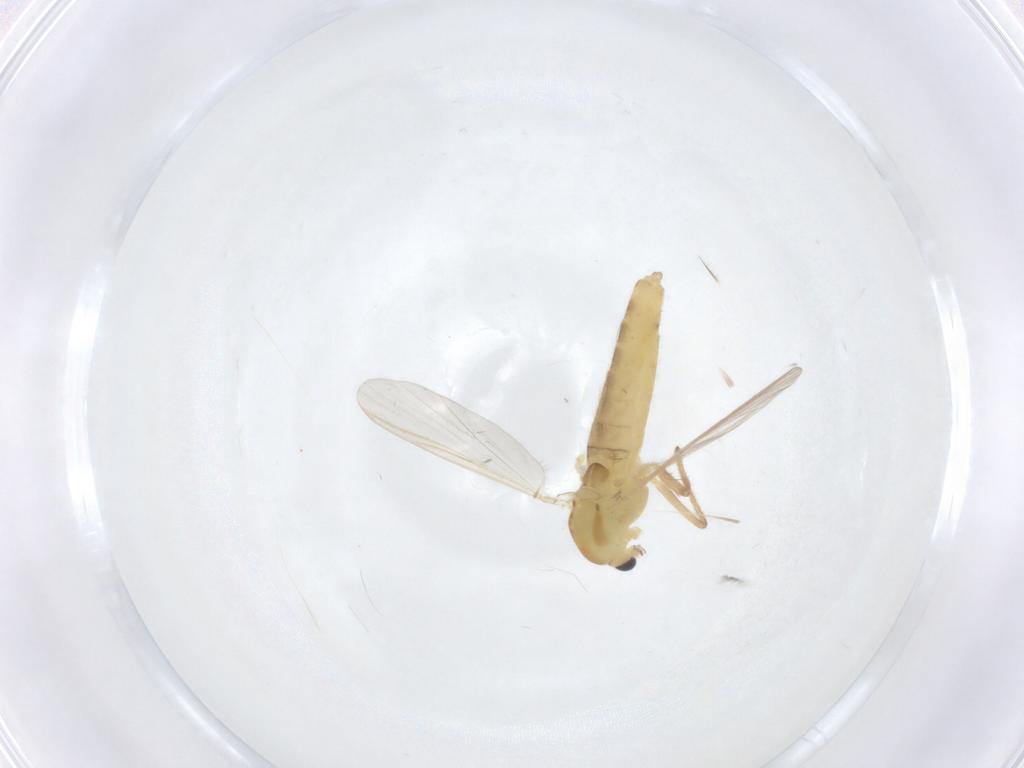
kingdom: Animalia
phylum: Arthropoda
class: Insecta
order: Diptera
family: Chironomidae
